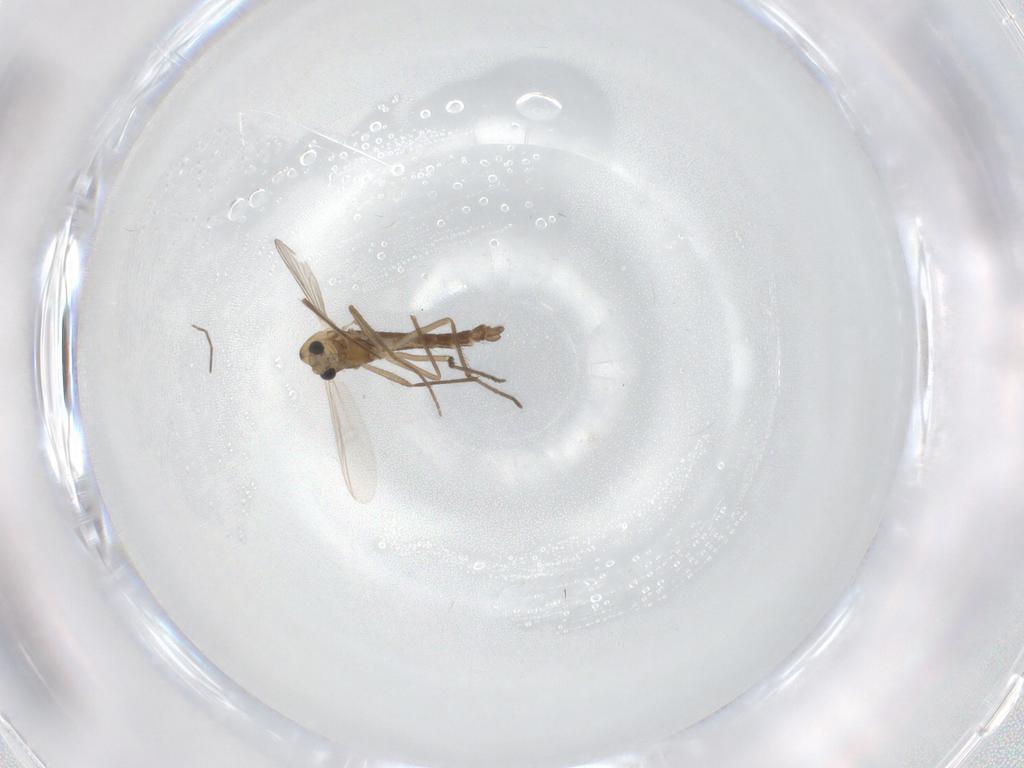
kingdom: Animalia
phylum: Arthropoda
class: Insecta
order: Diptera
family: Chironomidae
